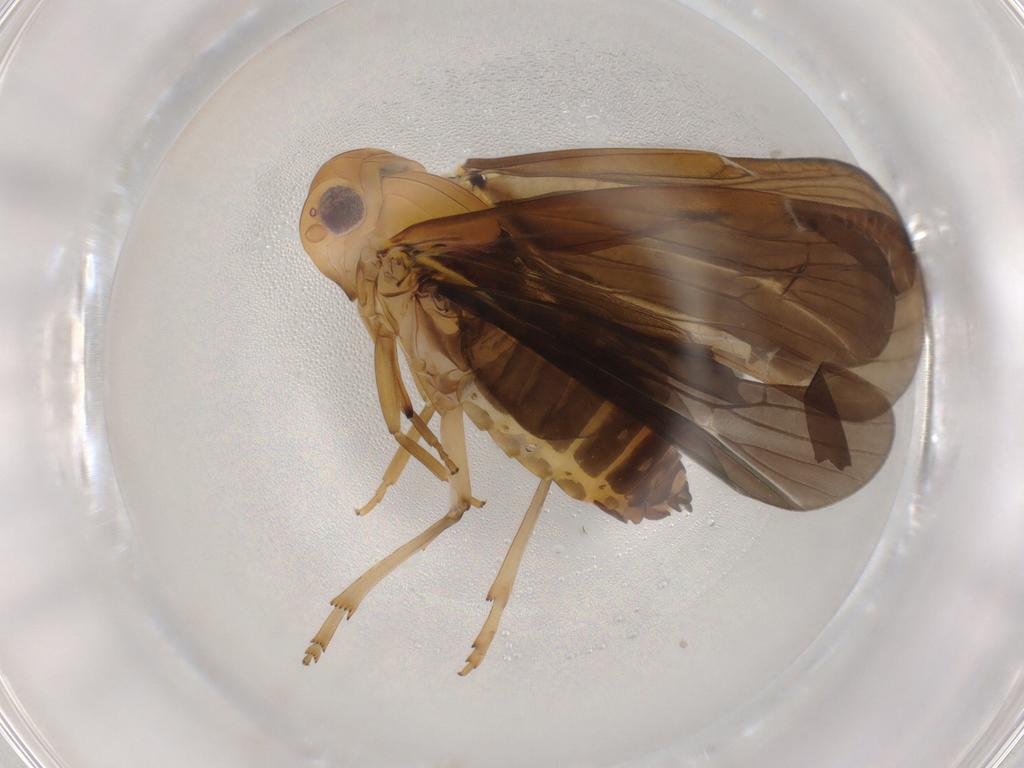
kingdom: Animalia
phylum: Arthropoda
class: Insecta
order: Hemiptera
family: Achilidae
